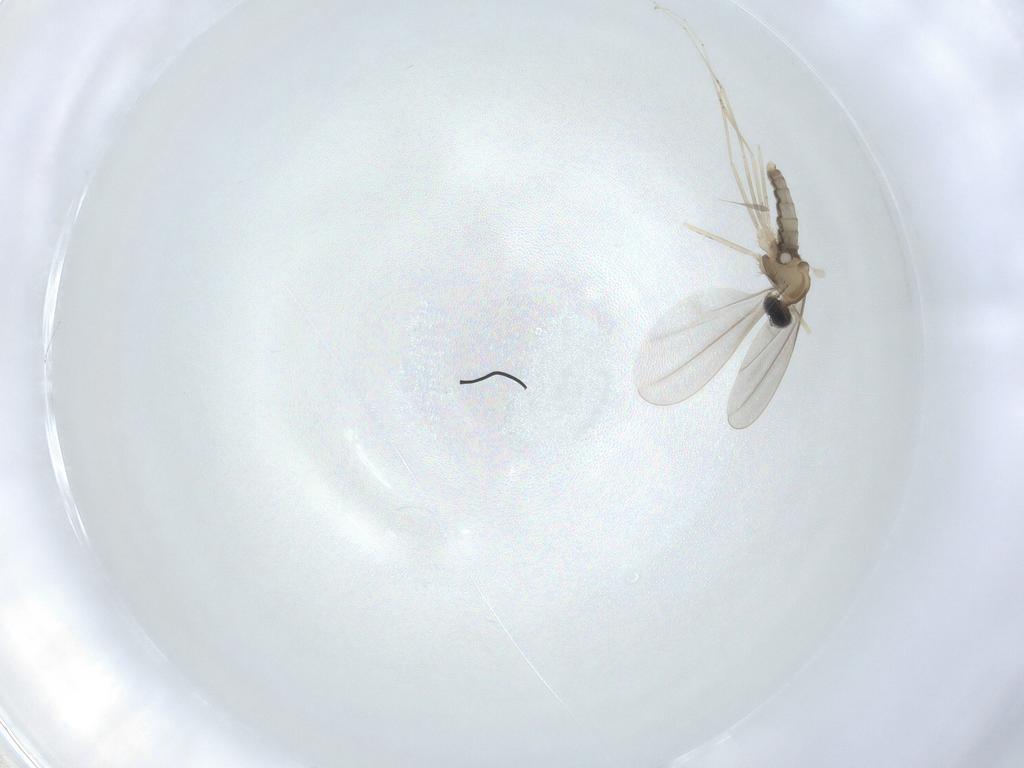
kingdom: Animalia
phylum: Arthropoda
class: Insecta
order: Diptera
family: Cecidomyiidae
